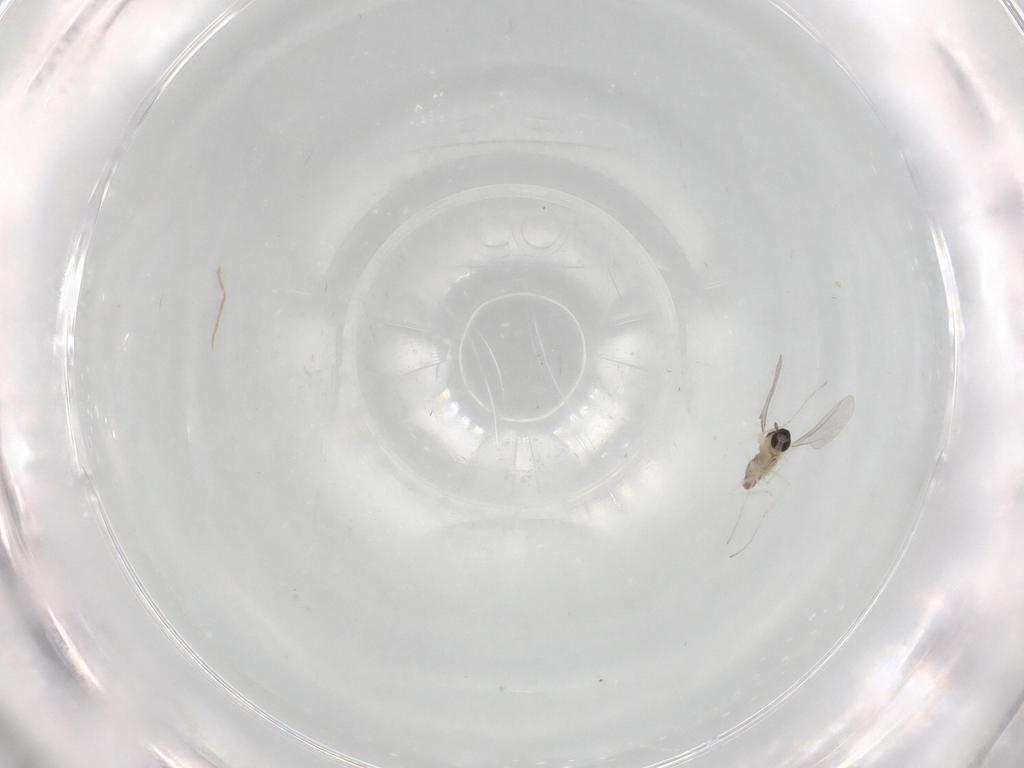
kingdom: Animalia
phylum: Arthropoda
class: Insecta
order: Diptera
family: Cecidomyiidae
